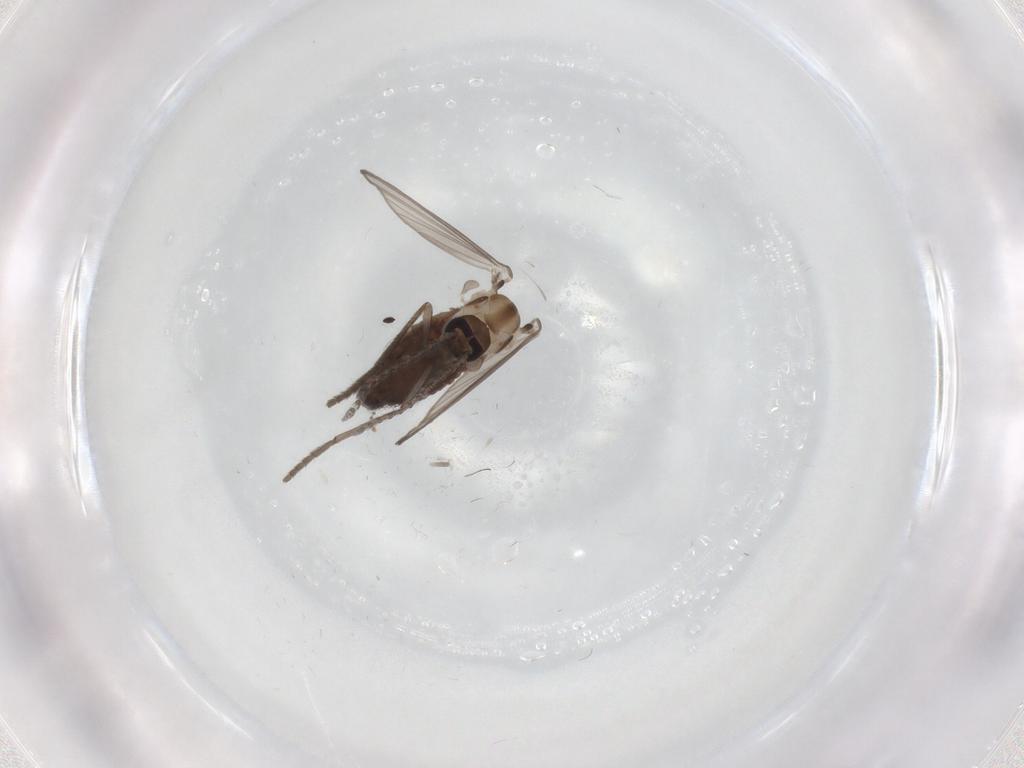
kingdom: Animalia
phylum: Arthropoda
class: Insecta
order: Diptera
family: Psychodidae
